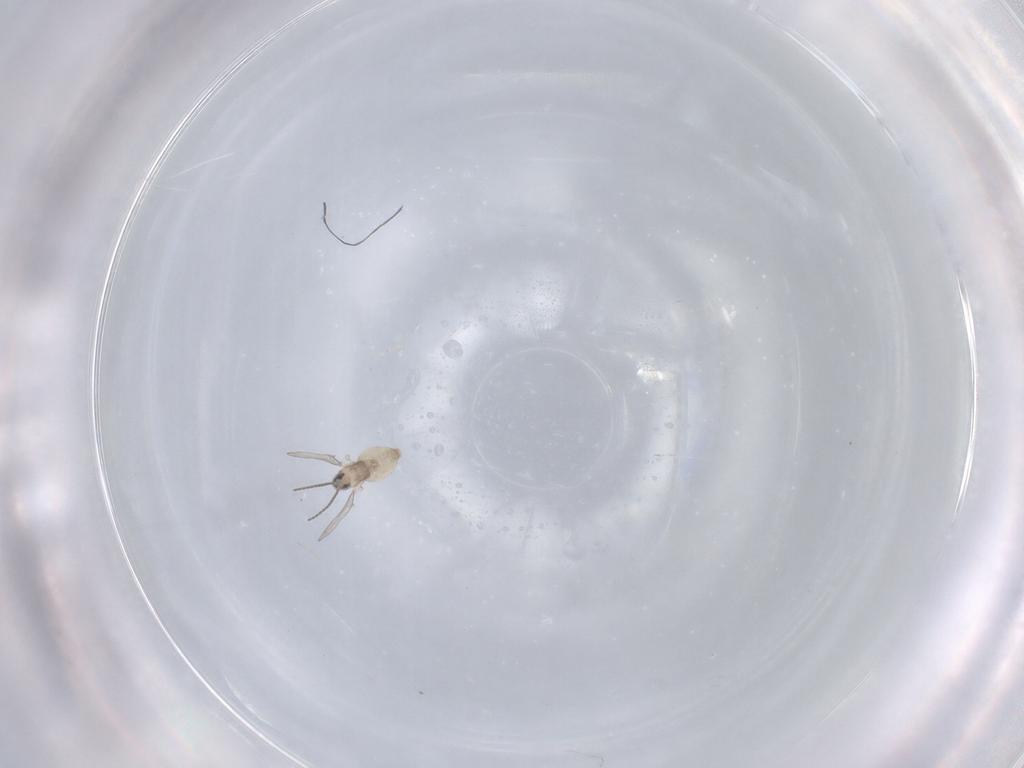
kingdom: Animalia
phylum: Arthropoda
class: Insecta
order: Diptera
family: Cecidomyiidae
